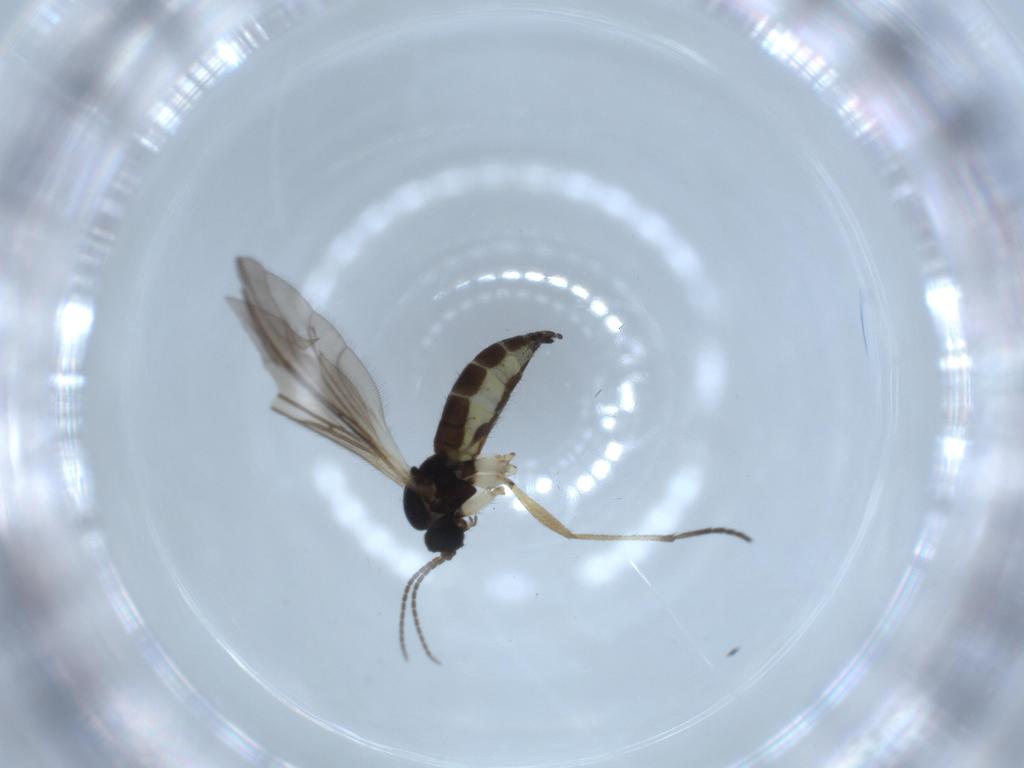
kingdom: Animalia
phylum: Arthropoda
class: Insecta
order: Diptera
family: Sciaridae
